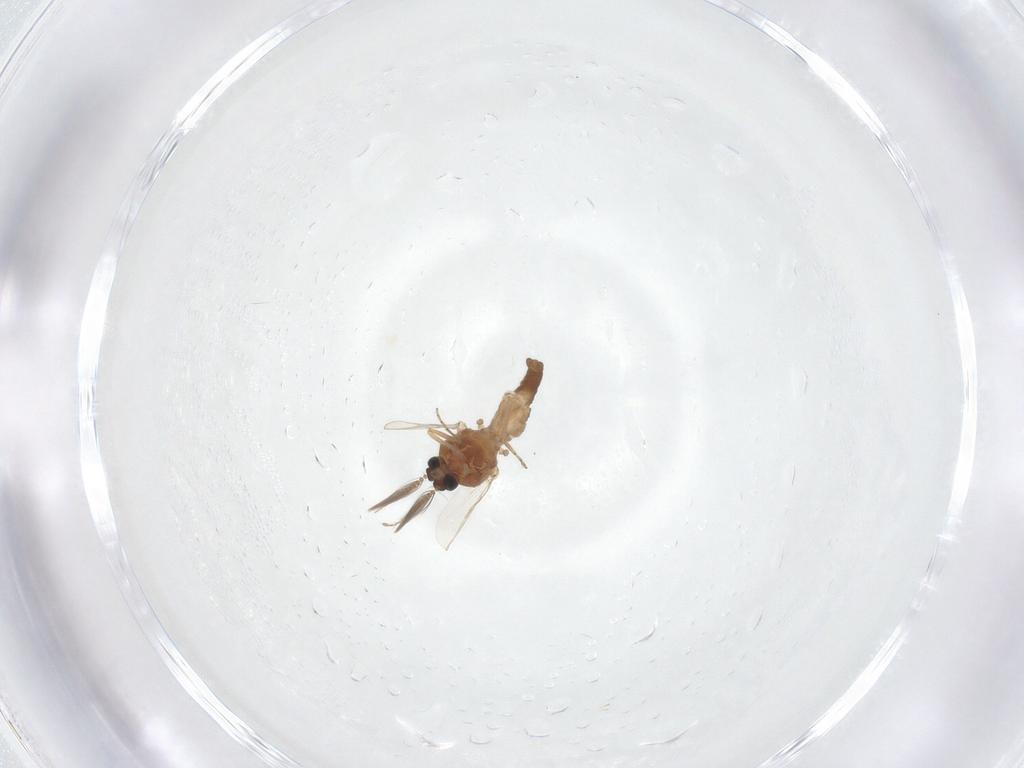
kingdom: Animalia
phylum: Arthropoda
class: Insecta
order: Diptera
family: Ceratopogonidae
